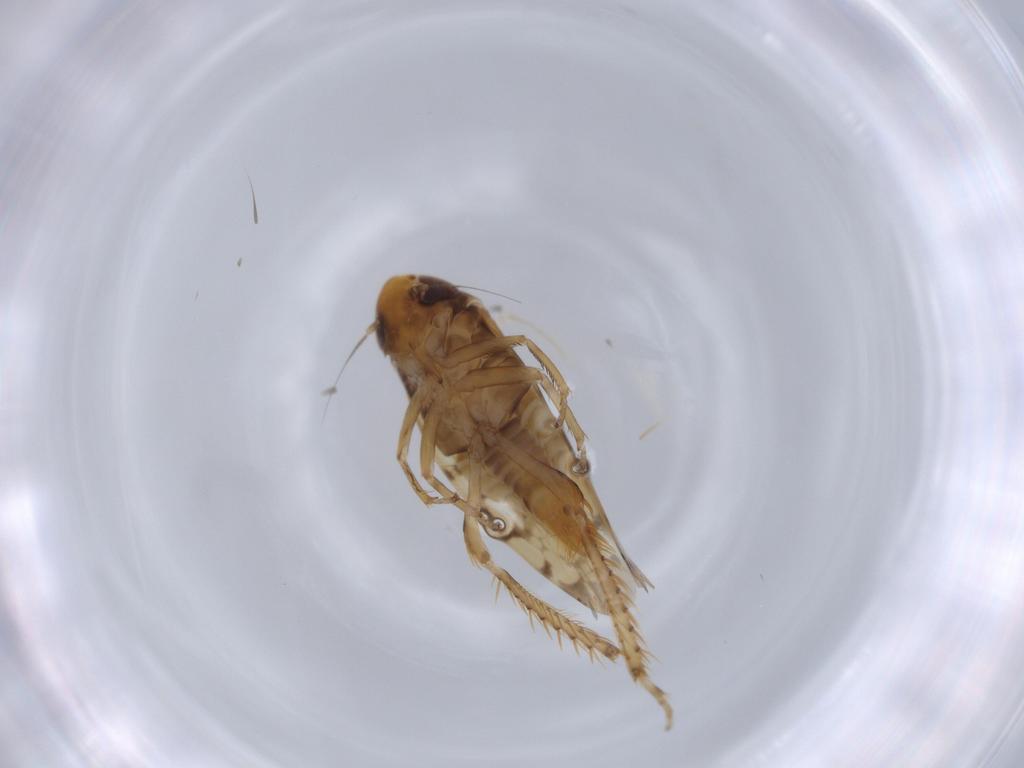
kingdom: Animalia
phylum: Arthropoda
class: Insecta
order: Hemiptera
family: Cicadellidae
